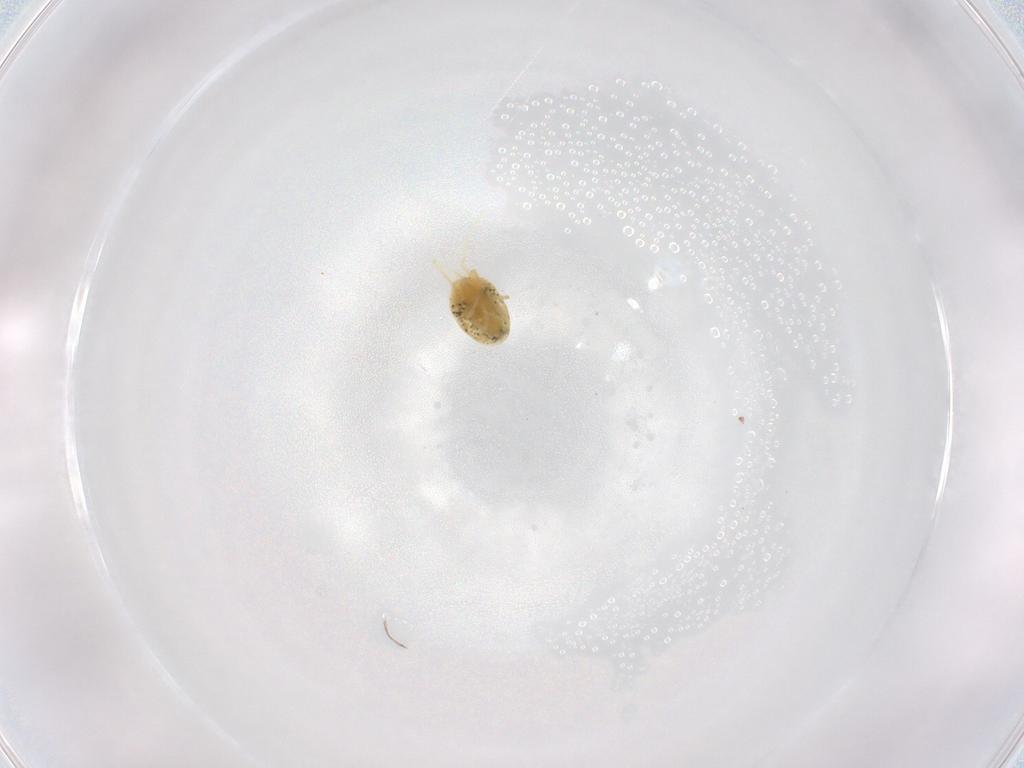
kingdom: Animalia
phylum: Arthropoda
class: Arachnida
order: Trombidiformes
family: Tetranychidae
